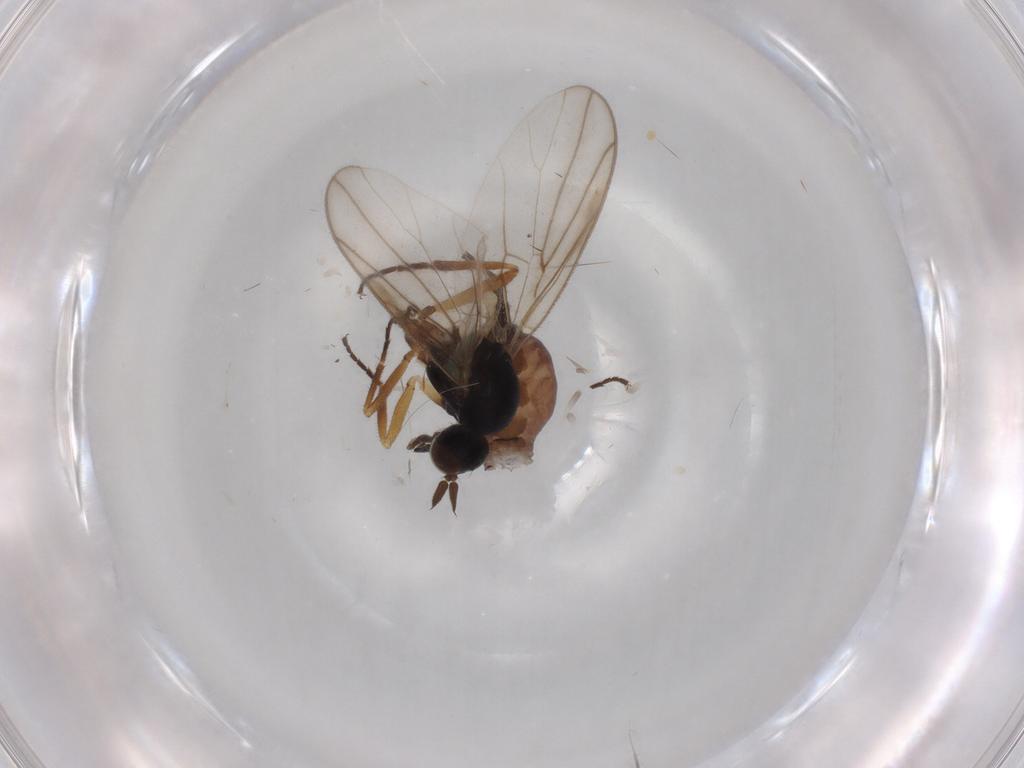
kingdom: Animalia
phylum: Arthropoda
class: Insecta
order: Diptera
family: Hybotidae
